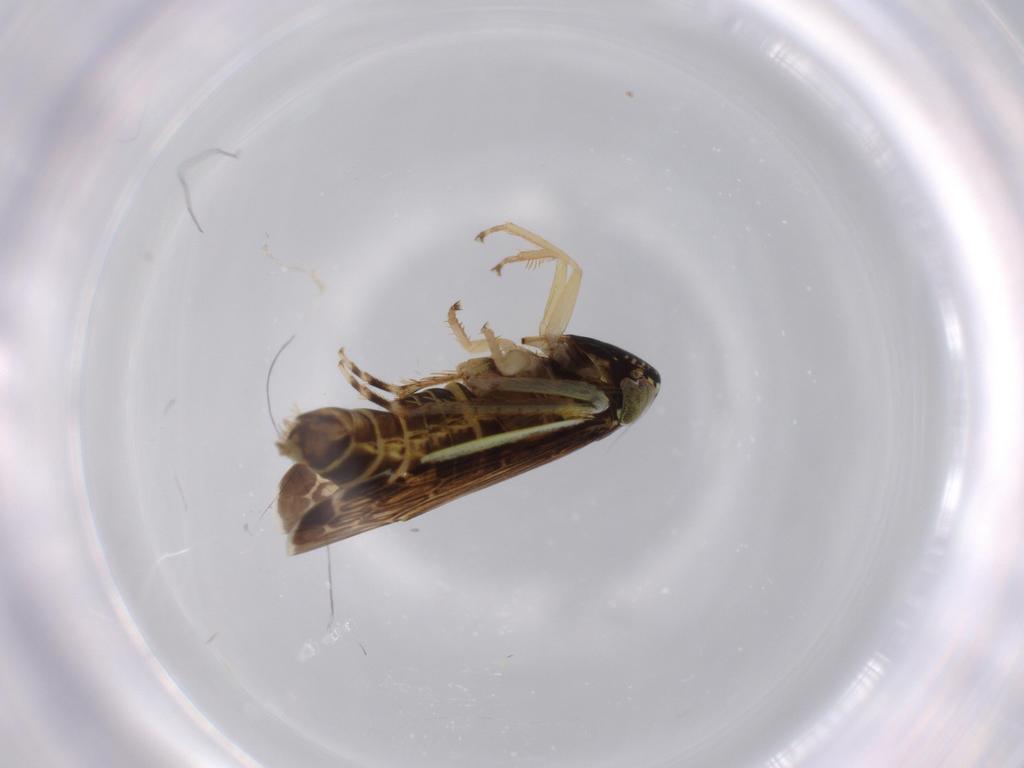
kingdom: Animalia
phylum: Arthropoda
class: Insecta
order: Hemiptera
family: Cicadellidae
